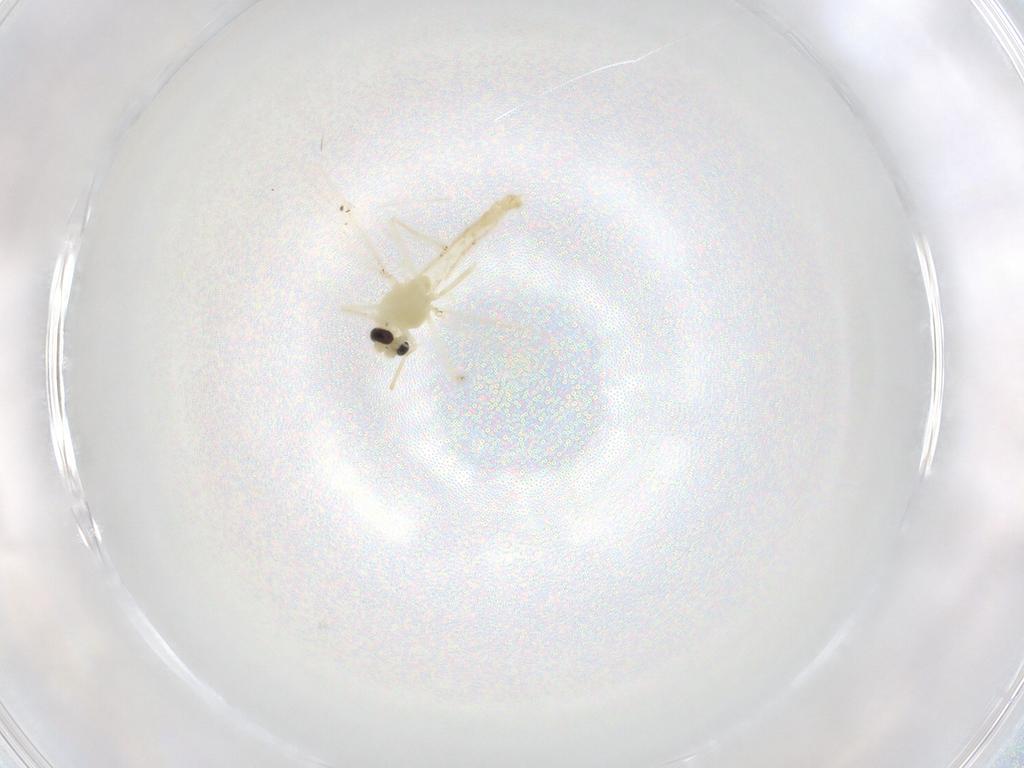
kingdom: Animalia
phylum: Arthropoda
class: Insecta
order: Diptera
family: Chironomidae
